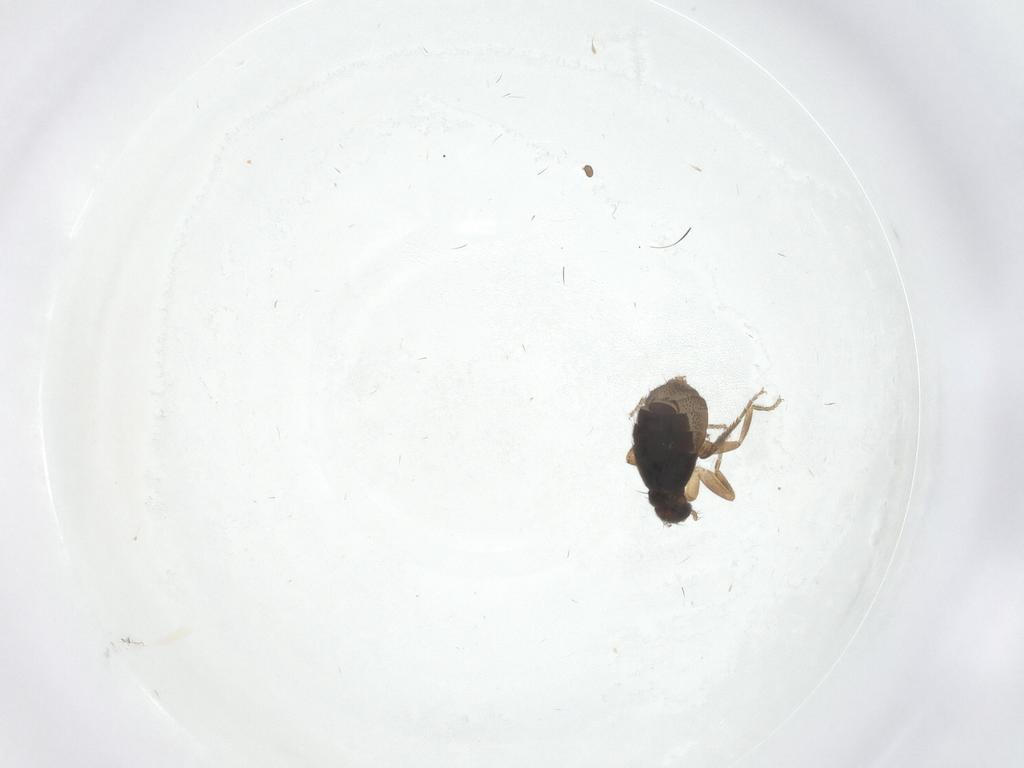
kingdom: Animalia
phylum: Arthropoda
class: Insecta
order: Diptera
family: Phoridae
